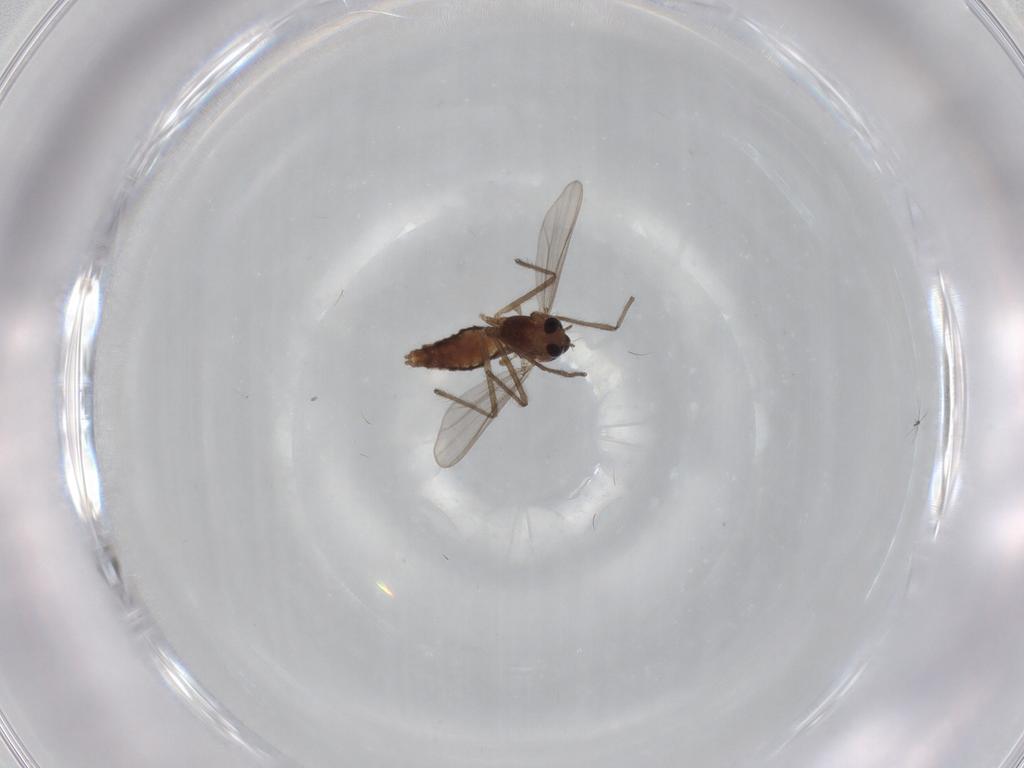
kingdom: Animalia
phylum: Arthropoda
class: Insecta
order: Diptera
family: Chironomidae
